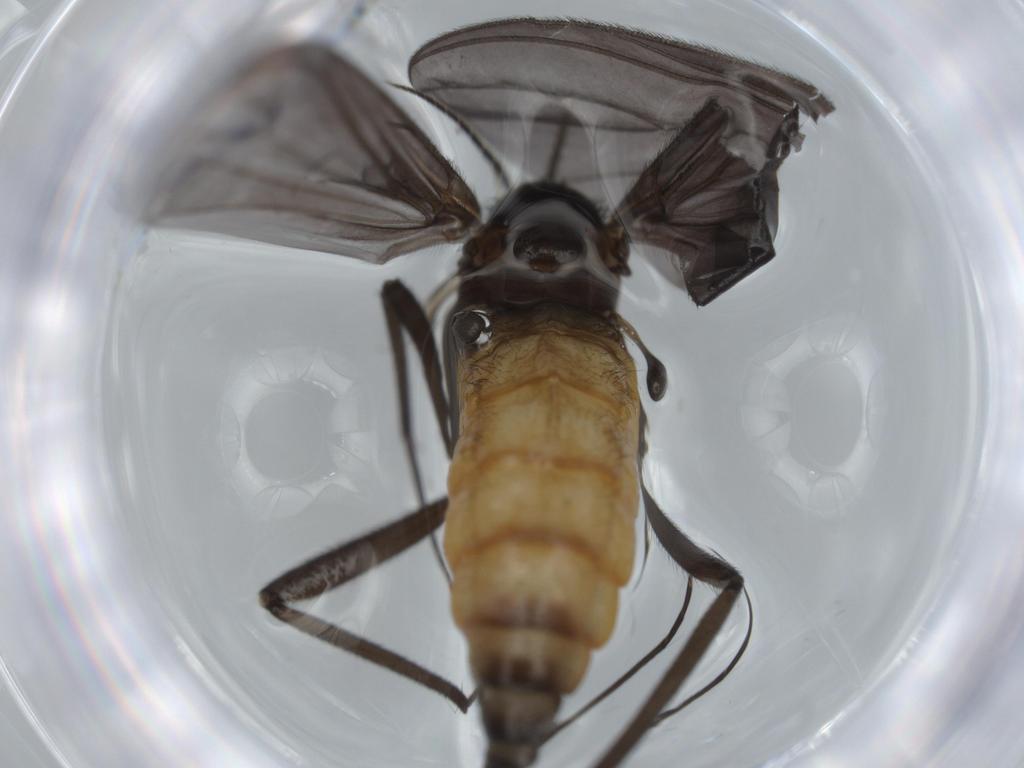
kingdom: Animalia
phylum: Arthropoda
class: Insecta
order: Diptera
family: Cecidomyiidae
